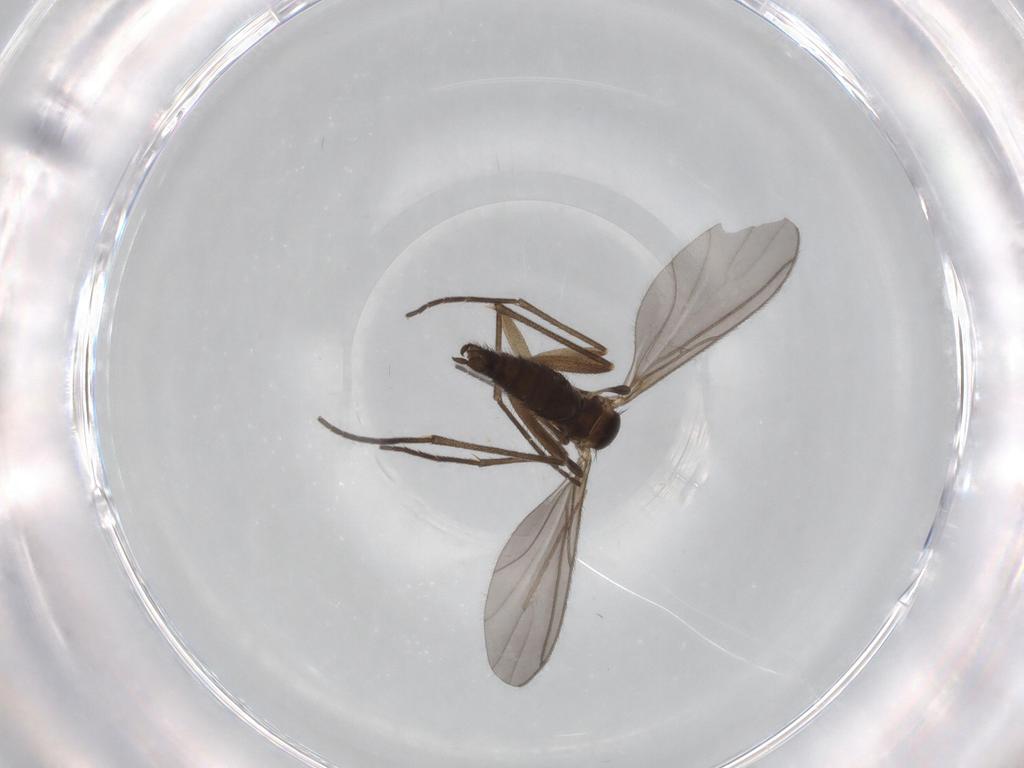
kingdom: Animalia
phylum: Arthropoda
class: Insecta
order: Diptera
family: Chironomidae
